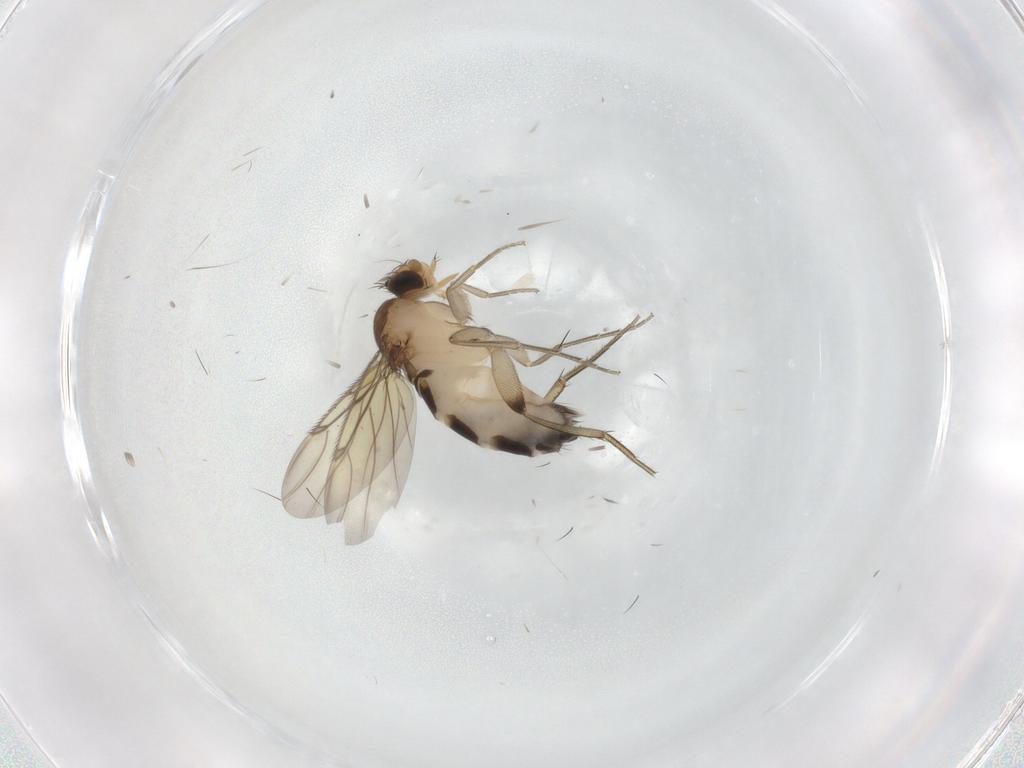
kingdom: Animalia
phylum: Arthropoda
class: Insecta
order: Diptera
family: Phoridae
